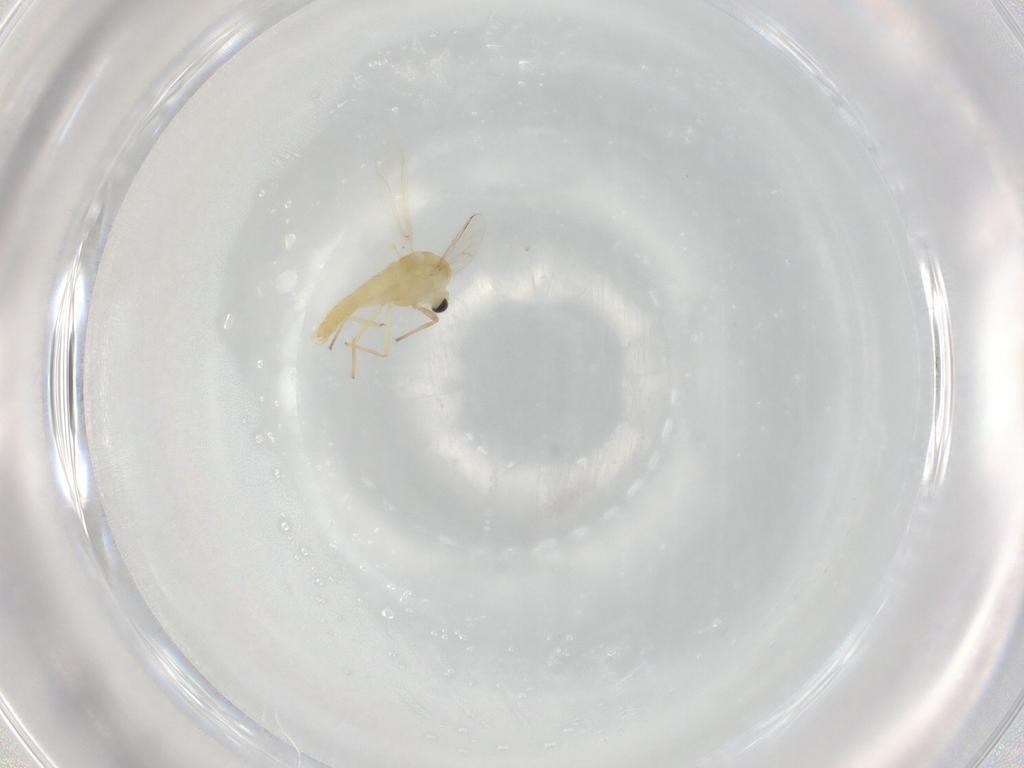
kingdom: Animalia
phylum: Arthropoda
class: Insecta
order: Diptera
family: Chironomidae
